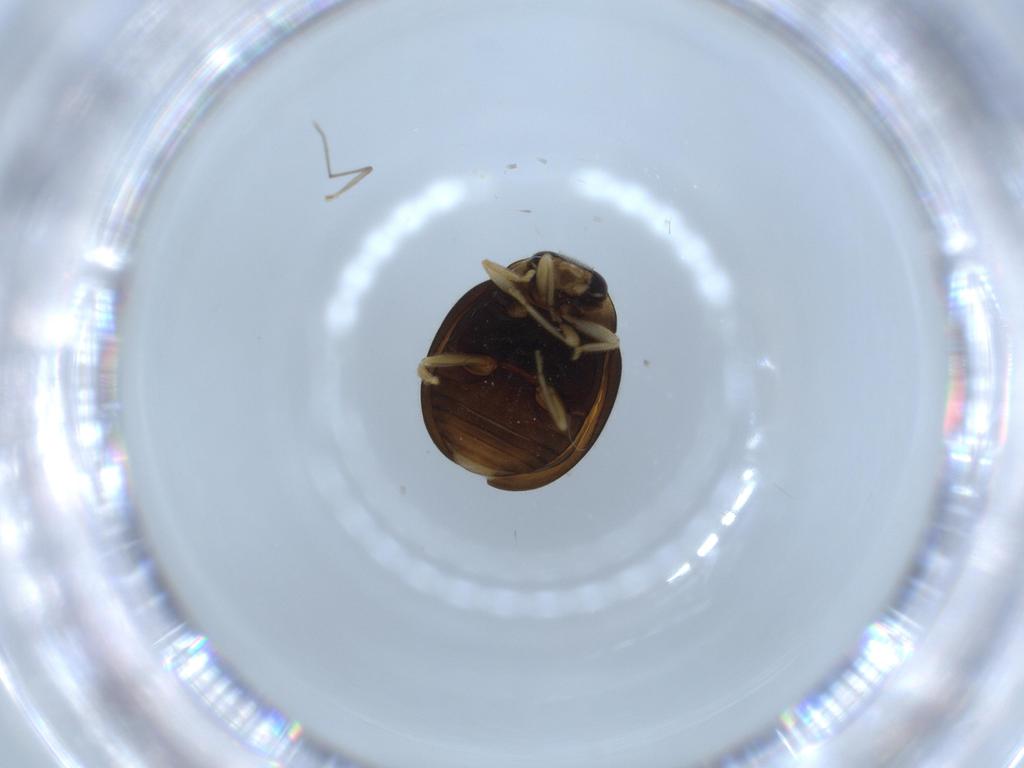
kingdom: Animalia
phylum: Arthropoda
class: Insecta
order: Coleoptera
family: Coccinellidae
